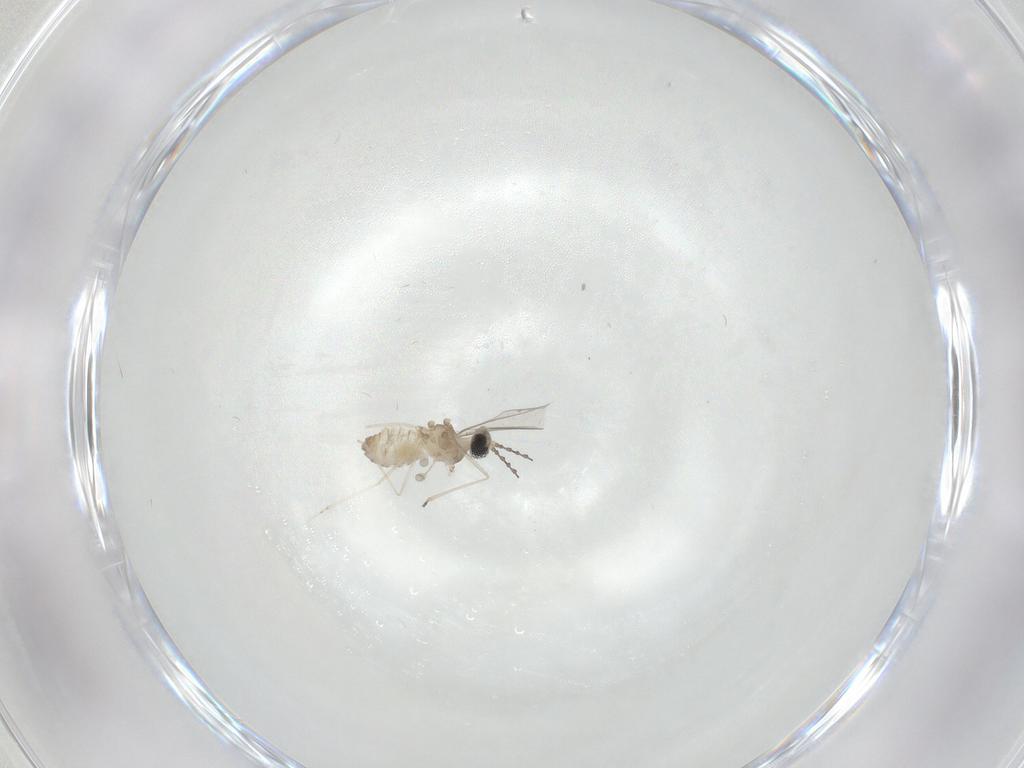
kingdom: Animalia
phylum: Arthropoda
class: Insecta
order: Diptera
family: Cecidomyiidae
